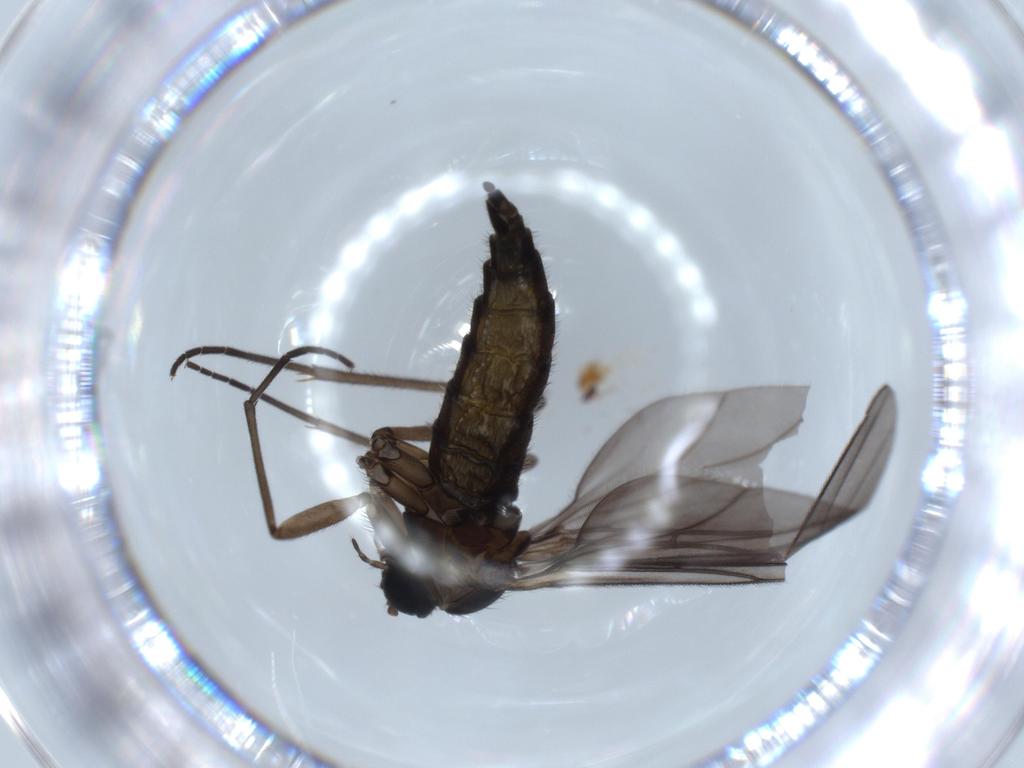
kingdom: Animalia
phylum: Arthropoda
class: Insecta
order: Diptera
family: Sciaridae
